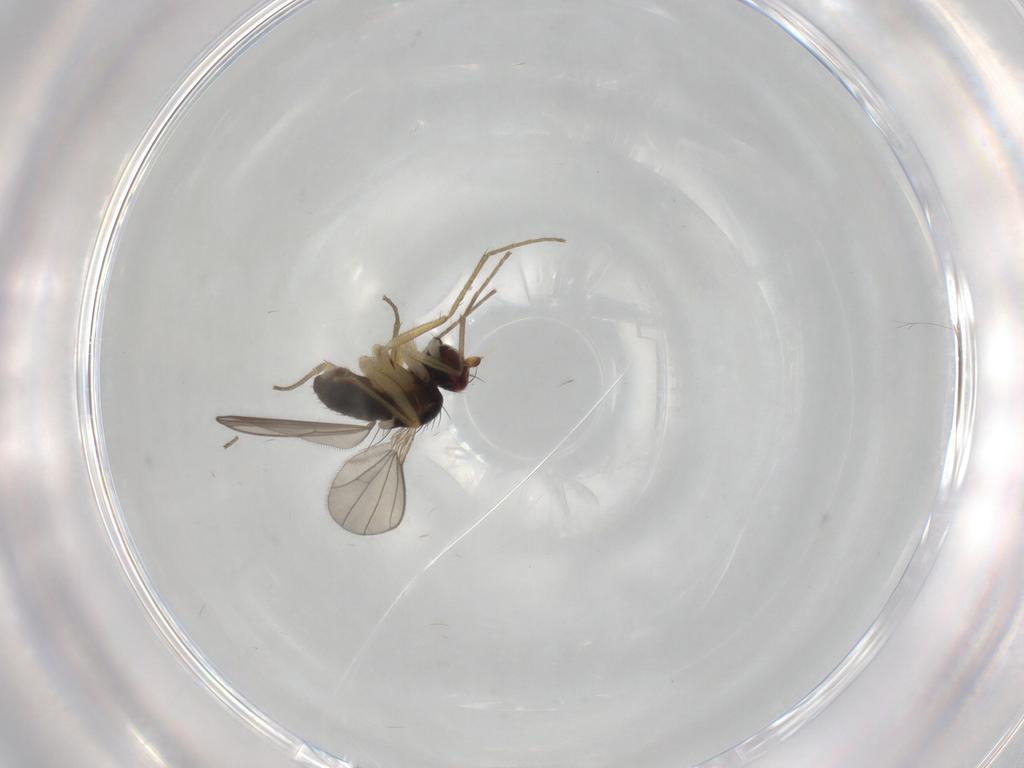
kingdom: Animalia
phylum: Arthropoda
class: Insecta
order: Diptera
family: Dolichopodidae
